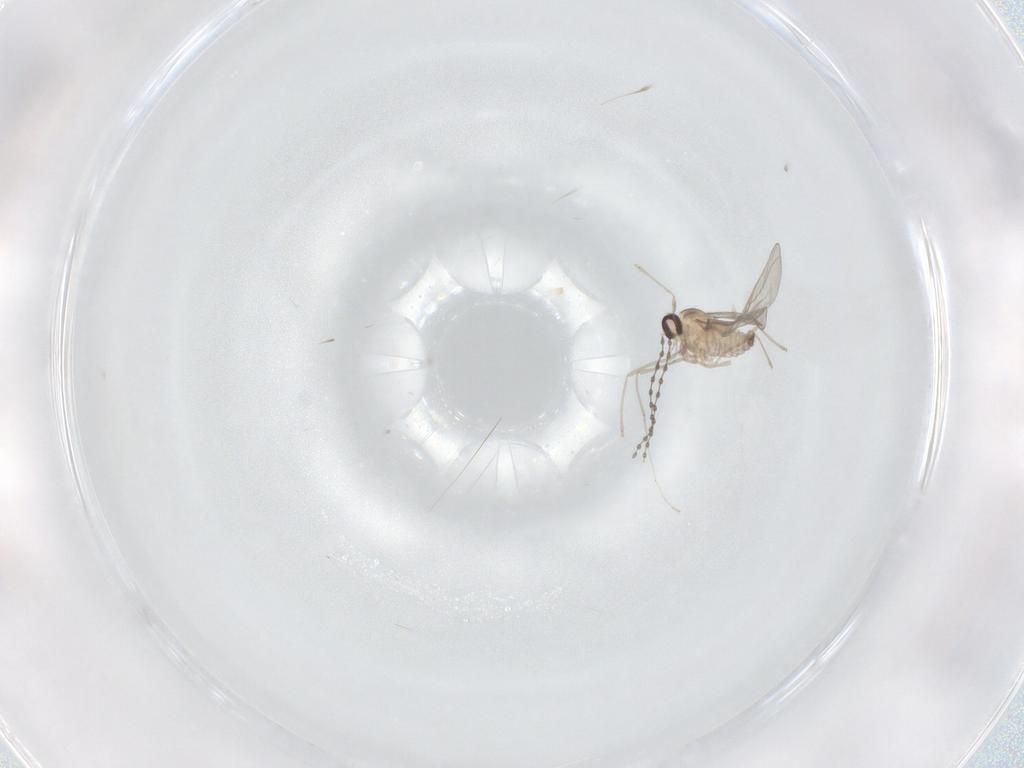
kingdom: Animalia
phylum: Arthropoda
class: Insecta
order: Diptera
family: Cecidomyiidae
